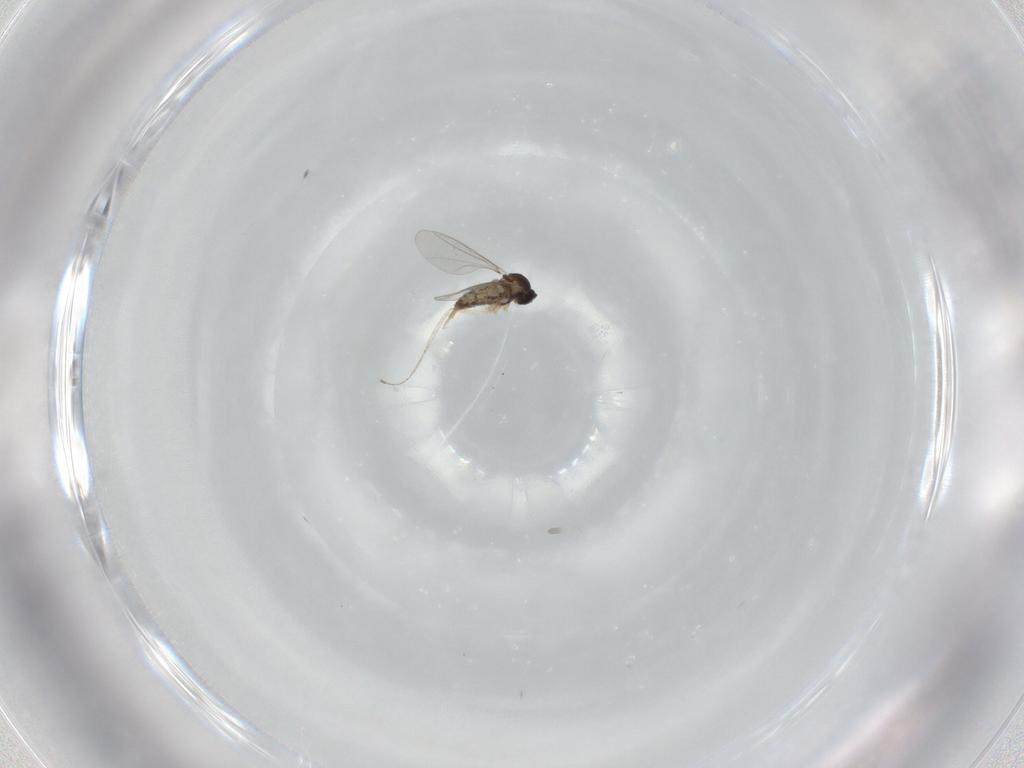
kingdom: Animalia
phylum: Arthropoda
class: Insecta
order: Diptera
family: Cecidomyiidae
